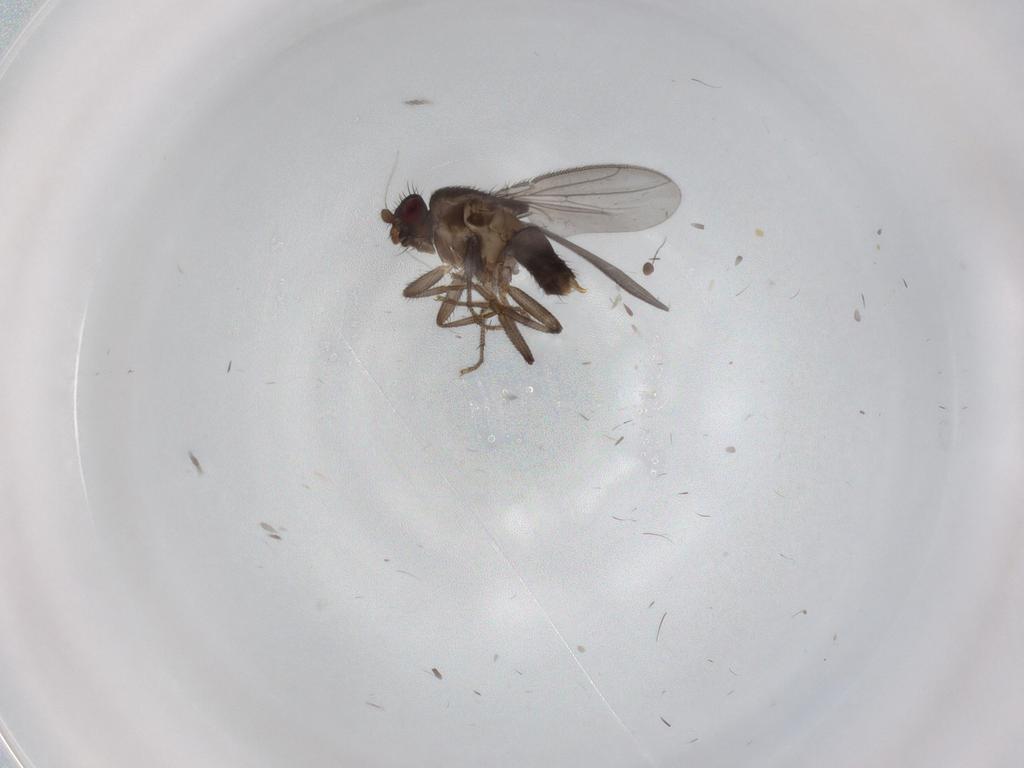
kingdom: Animalia
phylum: Arthropoda
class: Insecta
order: Diptera
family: Sphaeroceridae
